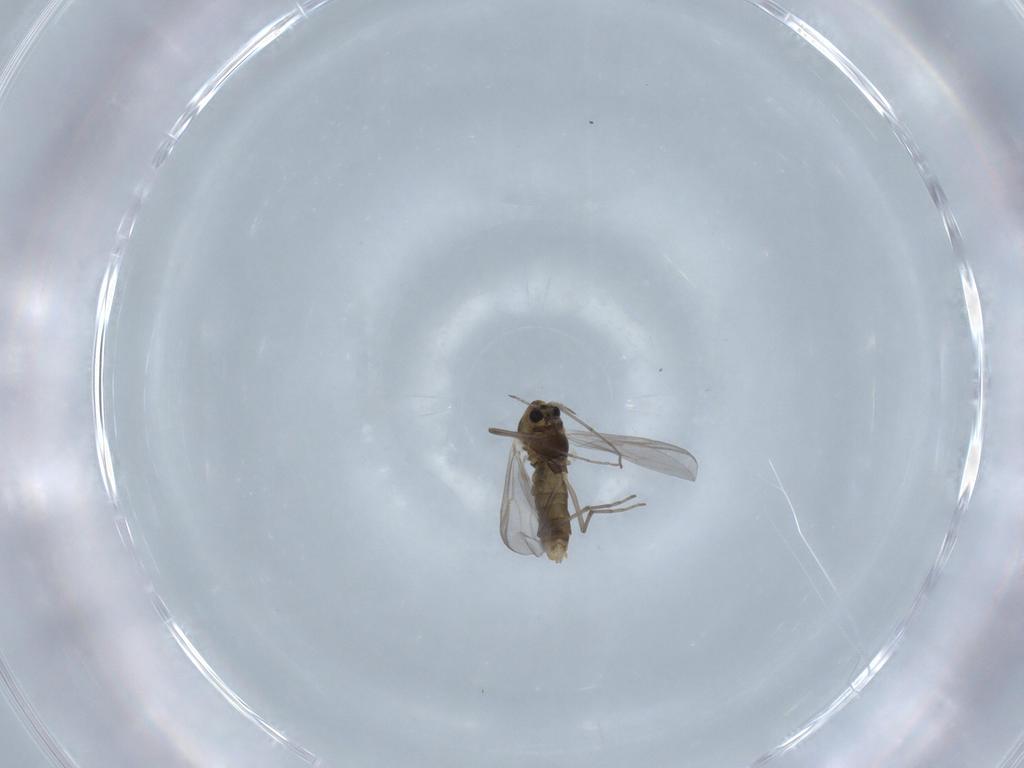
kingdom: Animalia
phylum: Arthropoda
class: Insecta
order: Diptera
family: Chironomidae
